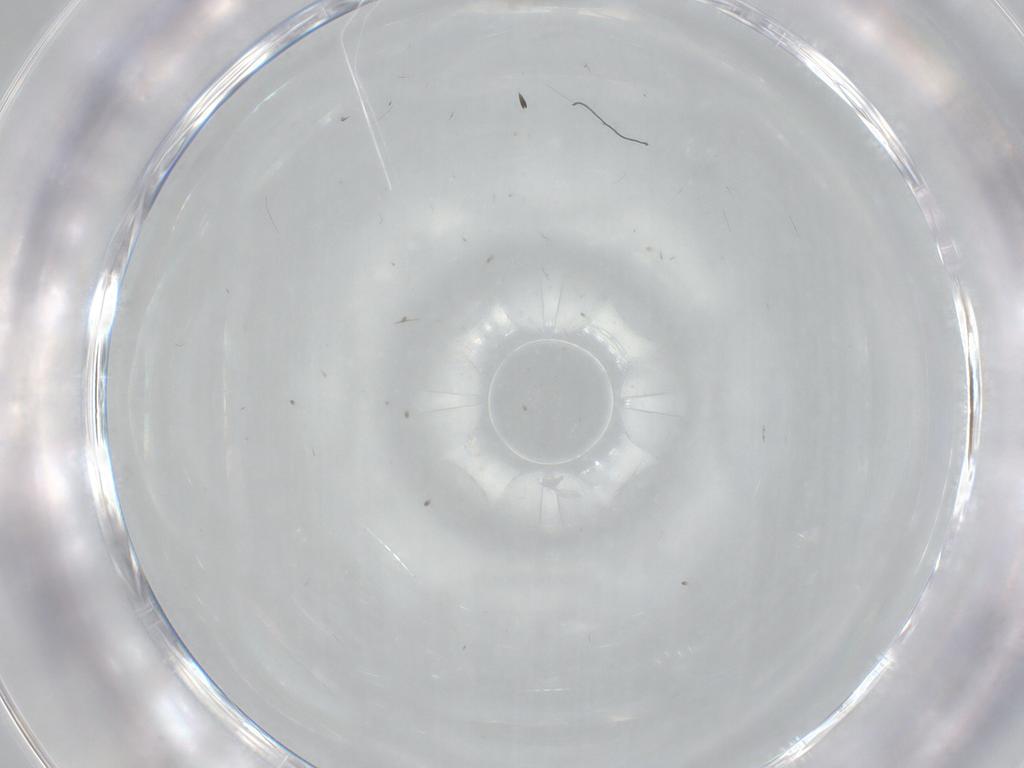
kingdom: Animalia
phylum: Arthropoda
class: Insecta
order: Diptera
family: Psychodidae
